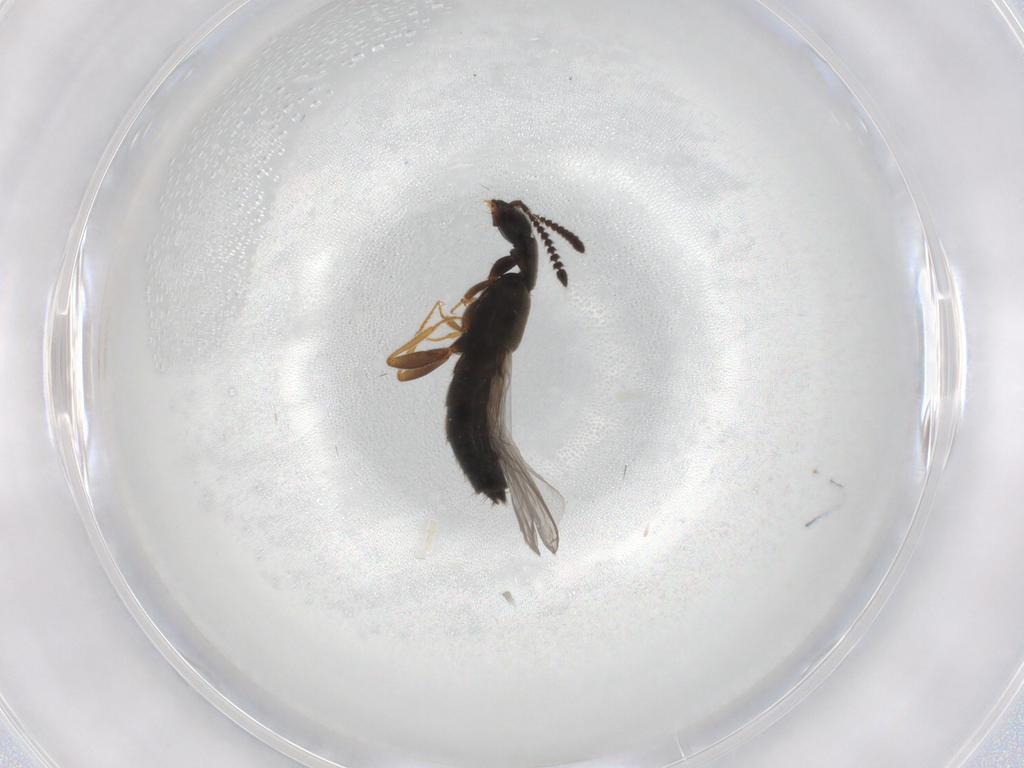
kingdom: Animalia
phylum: Arthropoda
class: Insecta
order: Coleoptera
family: Staphylinidae
